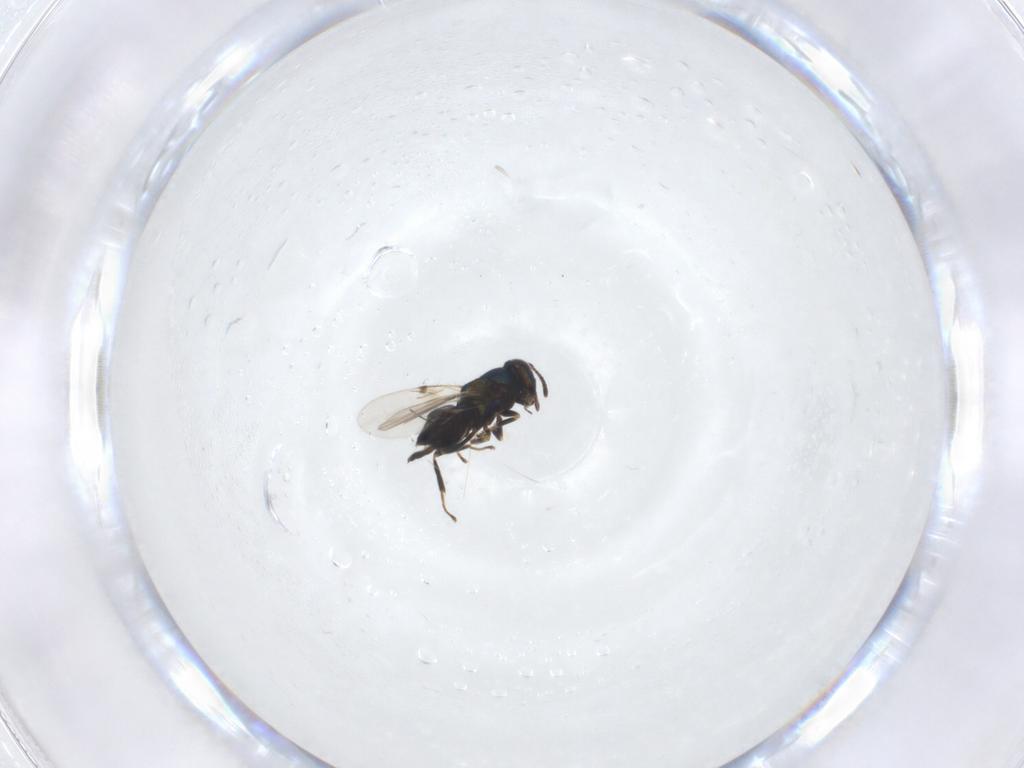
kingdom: Animalia
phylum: Arthropoda
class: Insecta
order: Hymenoptera
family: Encyrtidae
